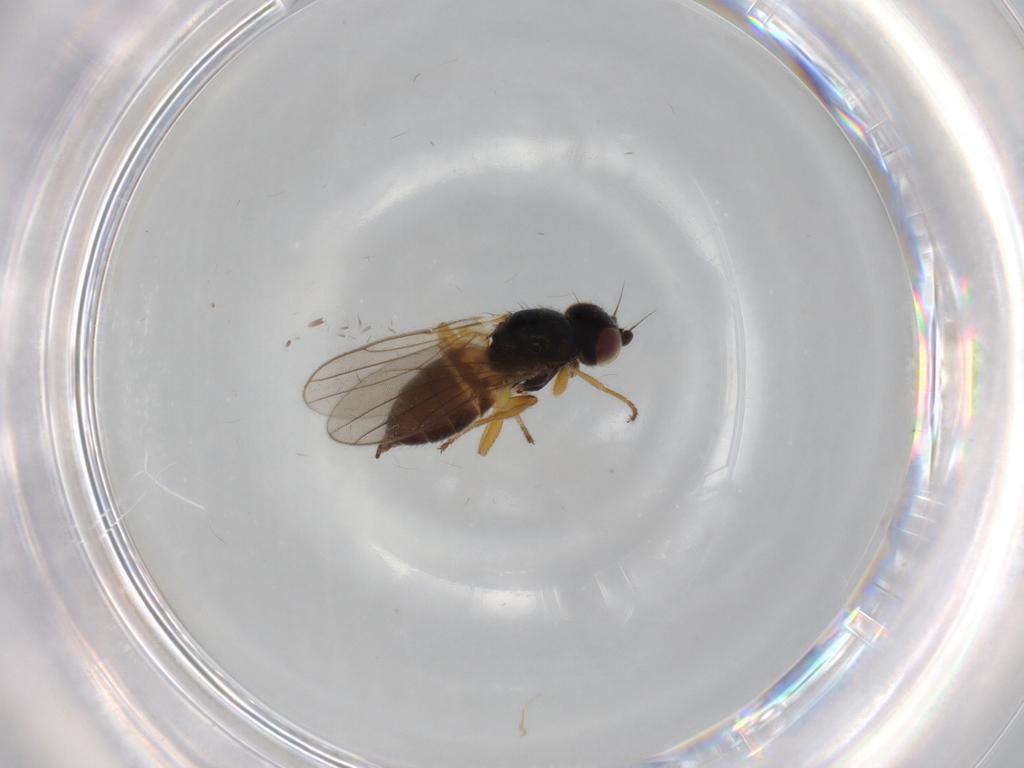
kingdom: Animalia
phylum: Arthropoda
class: Insecta
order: Diptera
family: Chloropidae
